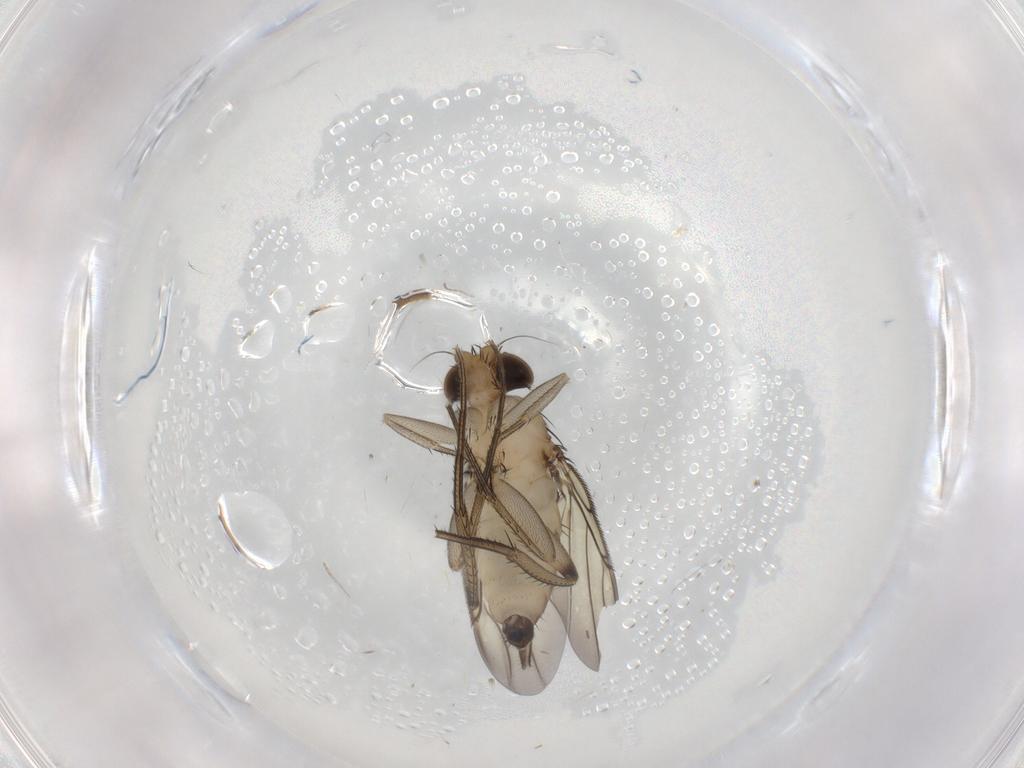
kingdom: Animalia
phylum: Arthropoda
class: Insecta
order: Diptera
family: Phoridae
